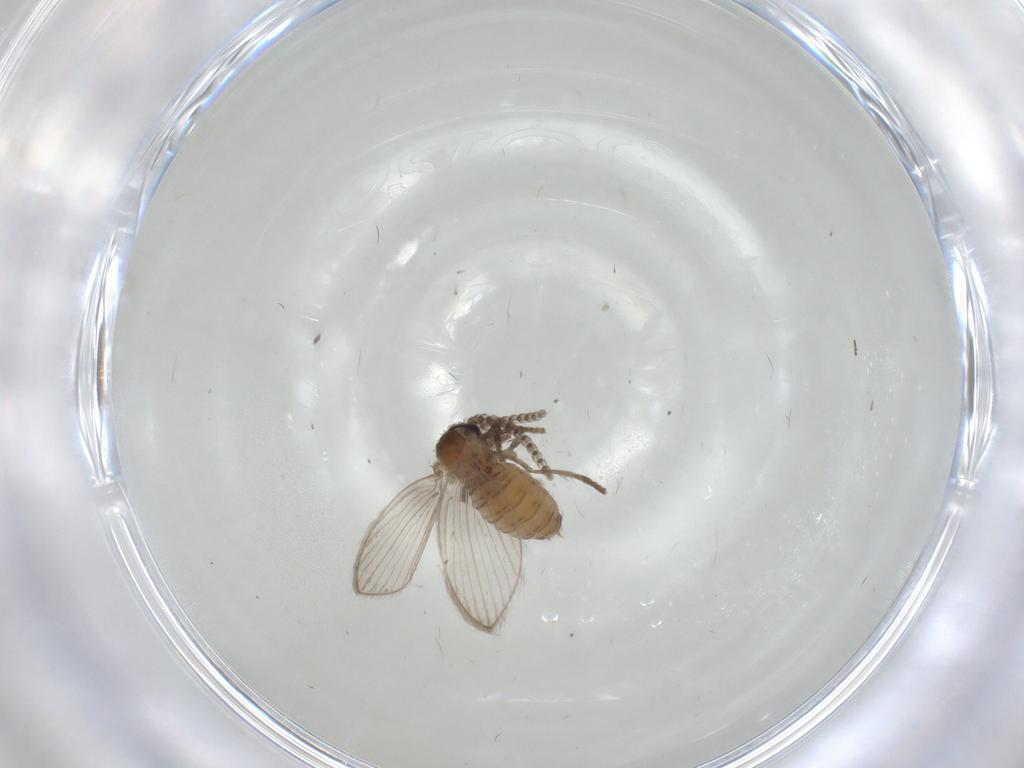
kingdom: Animalia
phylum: Arthropoda
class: Insecta
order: Diptera
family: Psychodidae
